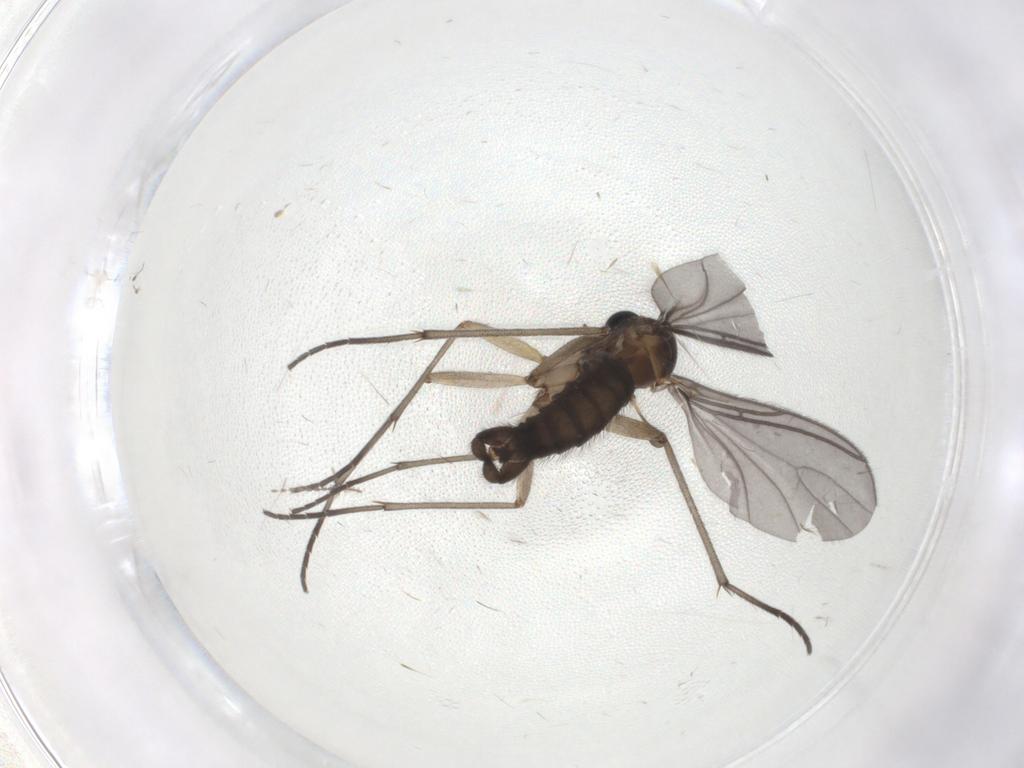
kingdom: Animalia
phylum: Arthropoda
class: Insecta
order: Diptera
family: Sciaridae
